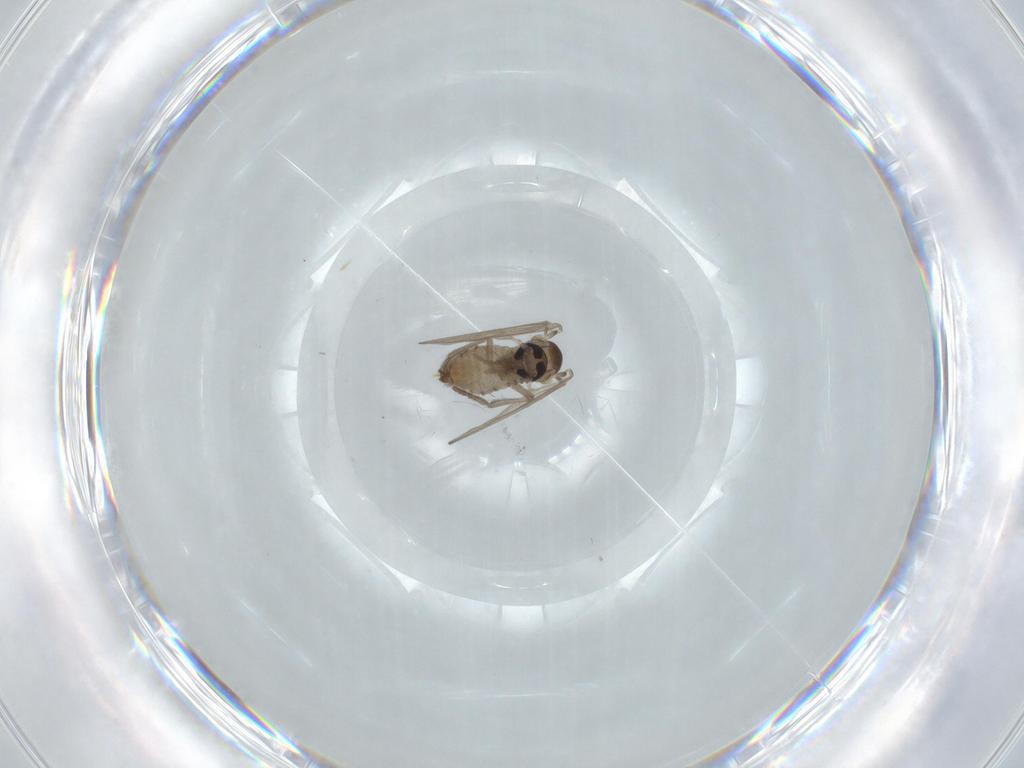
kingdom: Animalia
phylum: Arthropoda
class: Insecta
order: Diptera
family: Psychodidae
